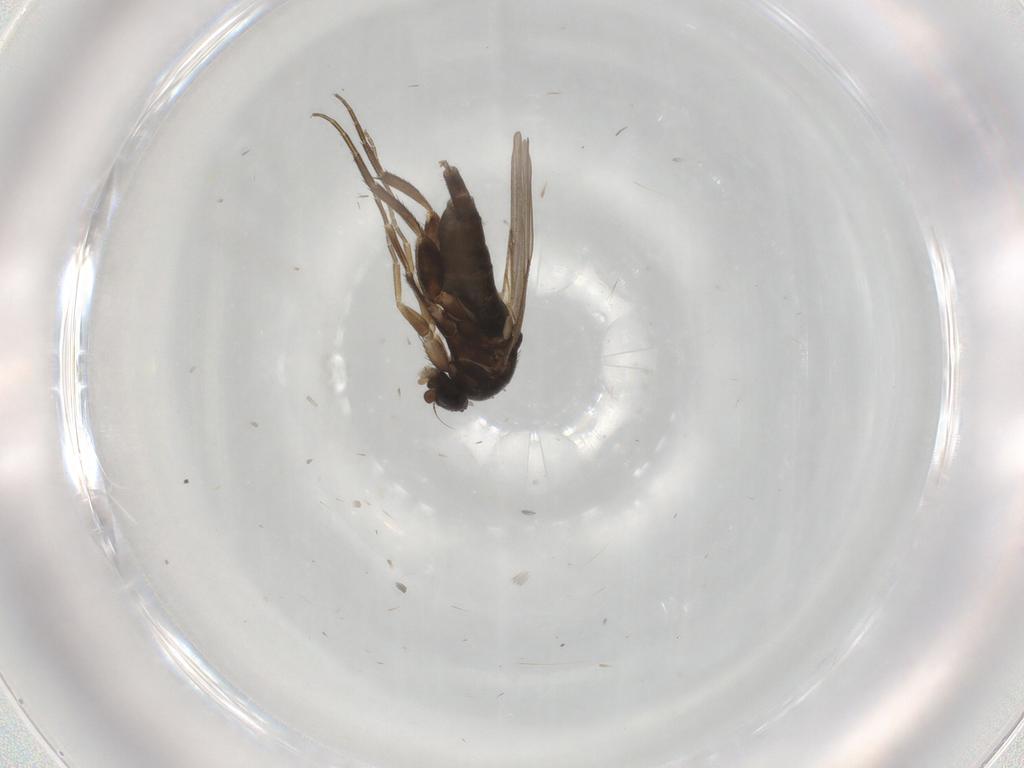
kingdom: Animalia
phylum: Arthropoda
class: Insecta
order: Diptera
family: Phoridae
